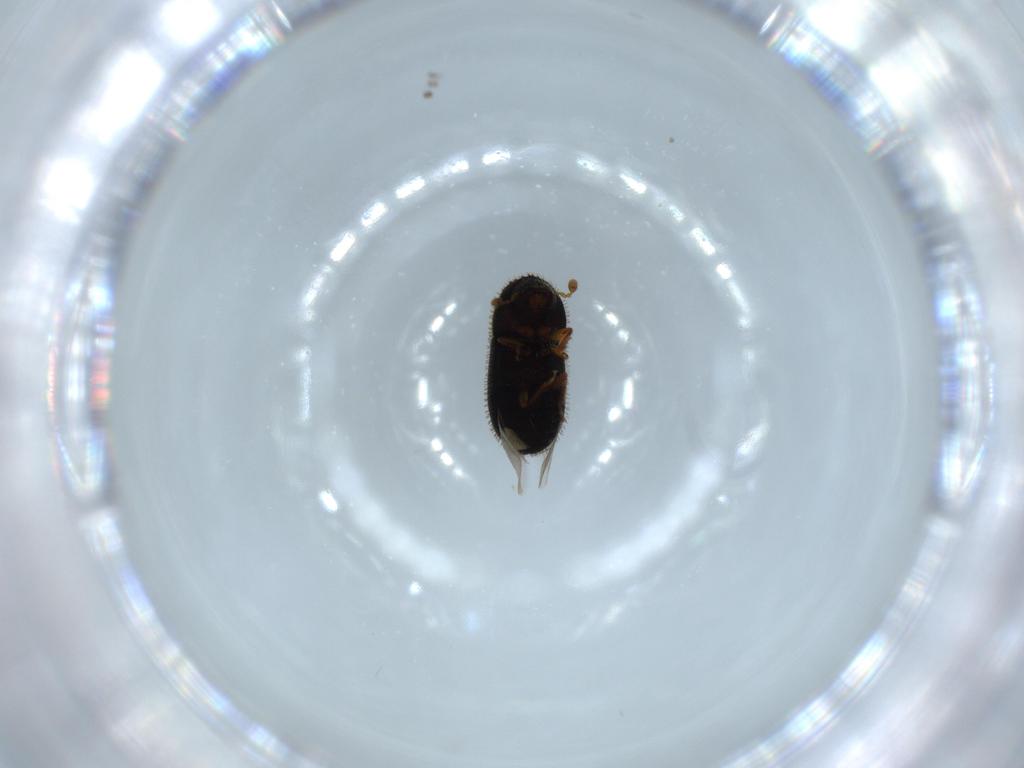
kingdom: Animalia
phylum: Arthropoda
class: Insecta
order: Coleoptera
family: Curculionidae
